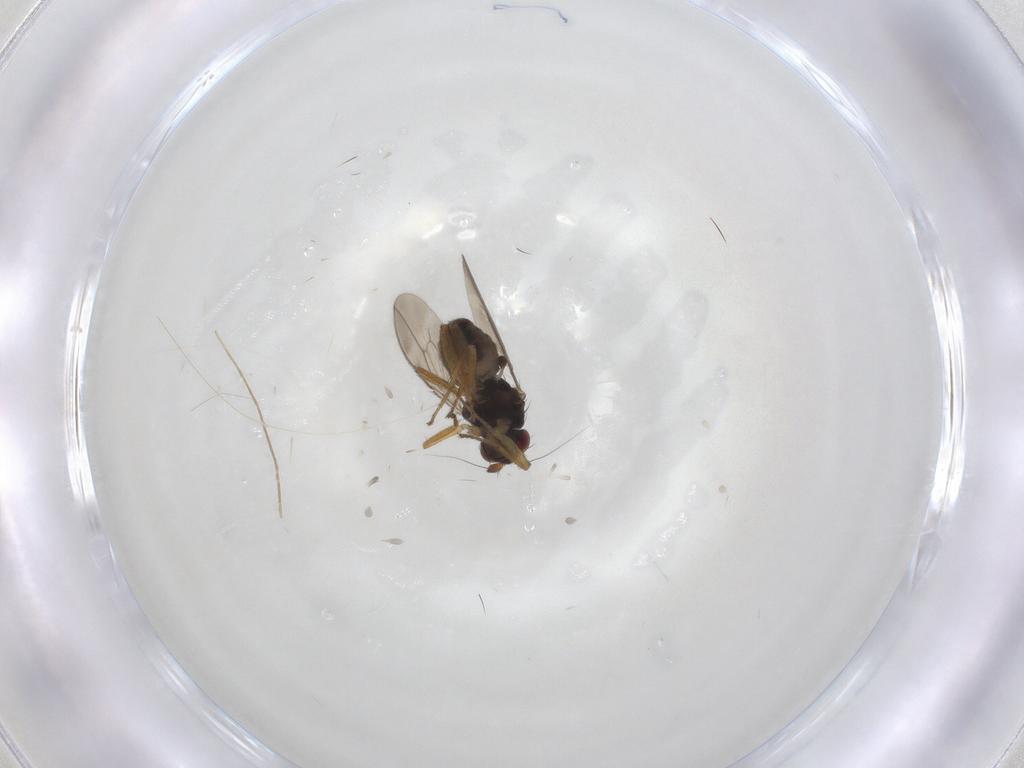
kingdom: Animalia
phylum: Arthropoda
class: Insecta
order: Diptera
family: Sphaeroceridae
